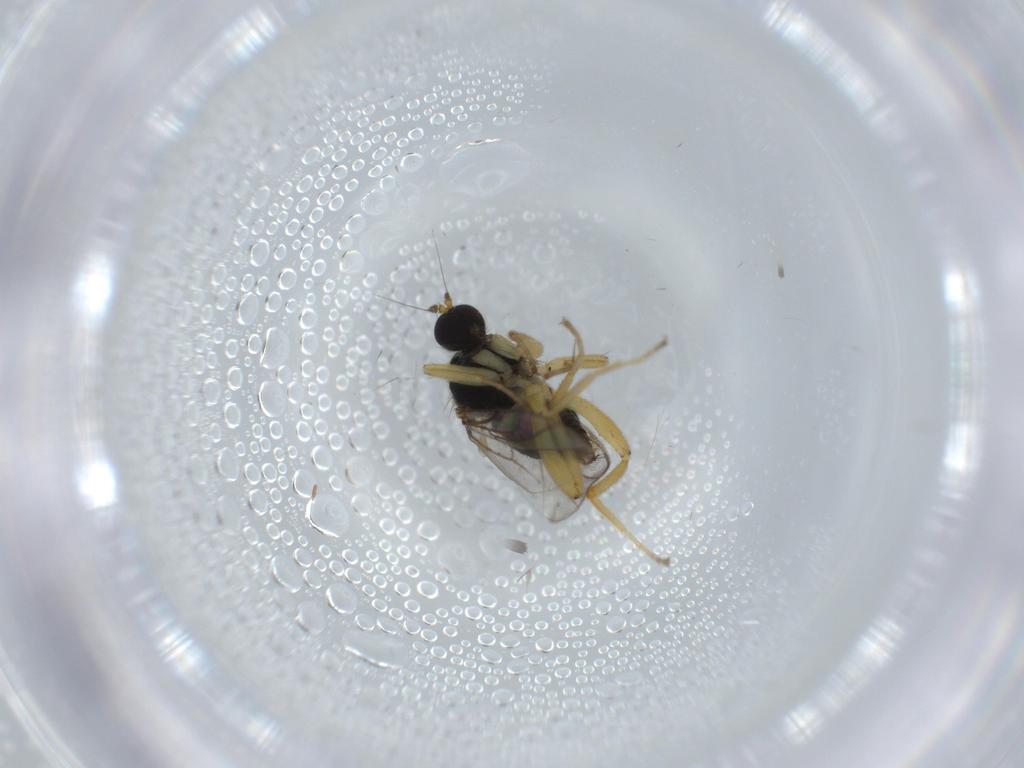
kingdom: Animalia
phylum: Arthropoda
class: Insecta
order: Diptera
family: Hybotidae
